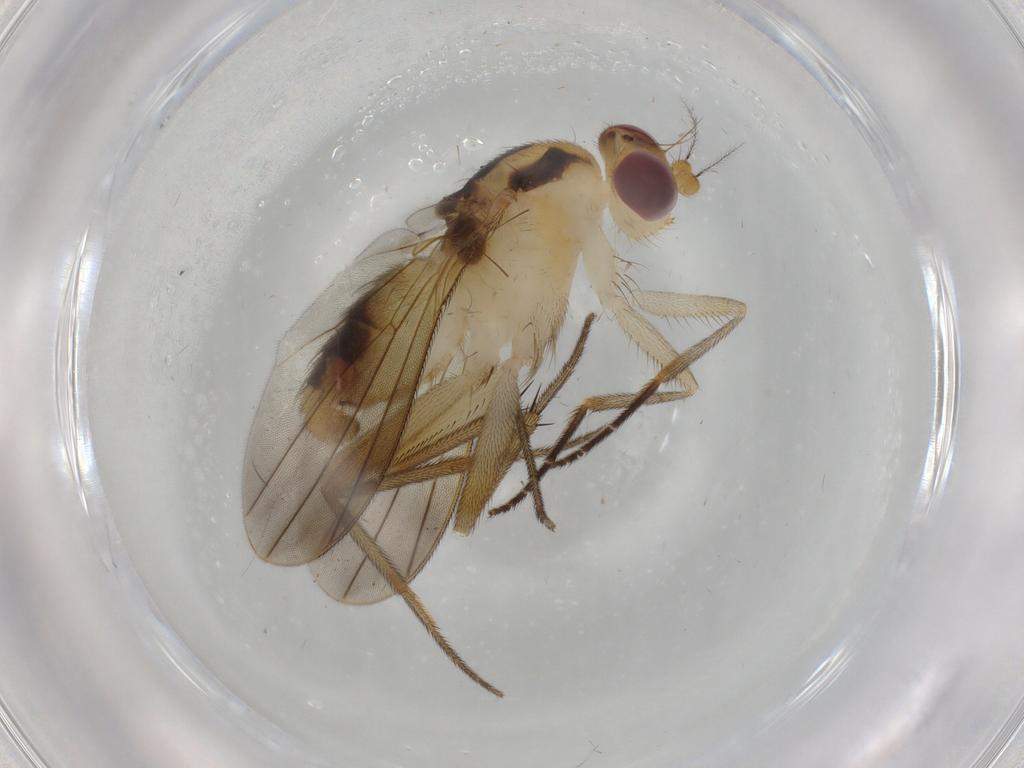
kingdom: Animalia
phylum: Arthropoda
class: Insecta
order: Diptera
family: Clusiidae
